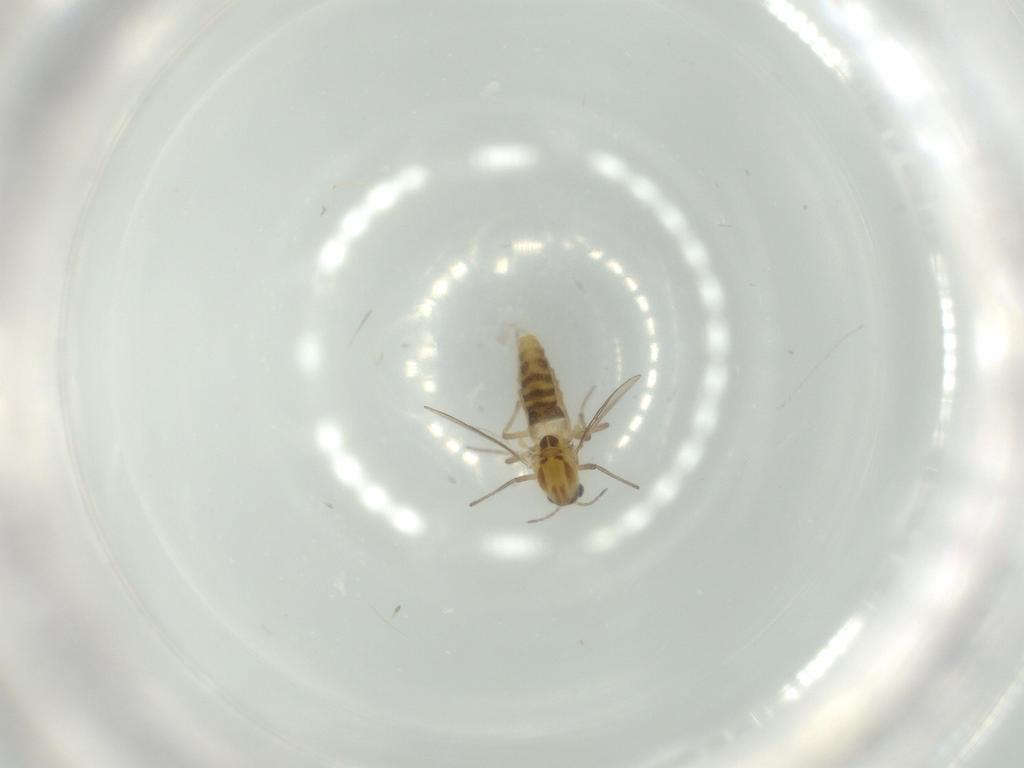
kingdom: Animalia
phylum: Arthropoda
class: Insecta
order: Diptera
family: Chironomidae
